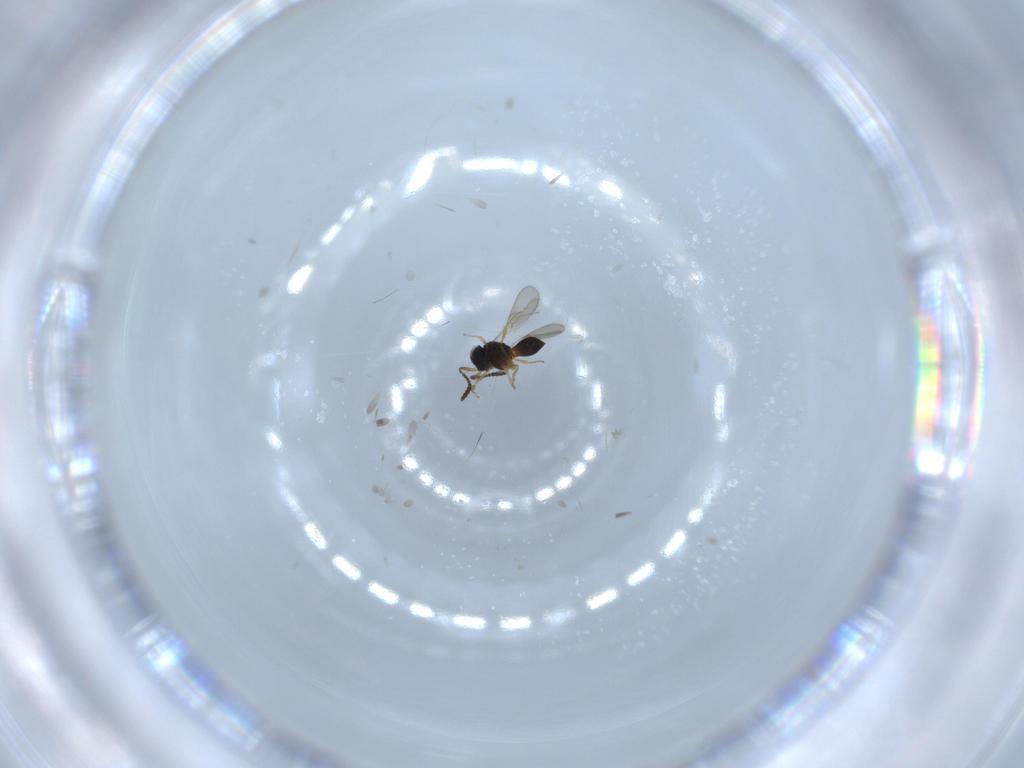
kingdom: Animalia
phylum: Arthropoda
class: Insecta
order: Hymenoptera
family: Scelionidae
